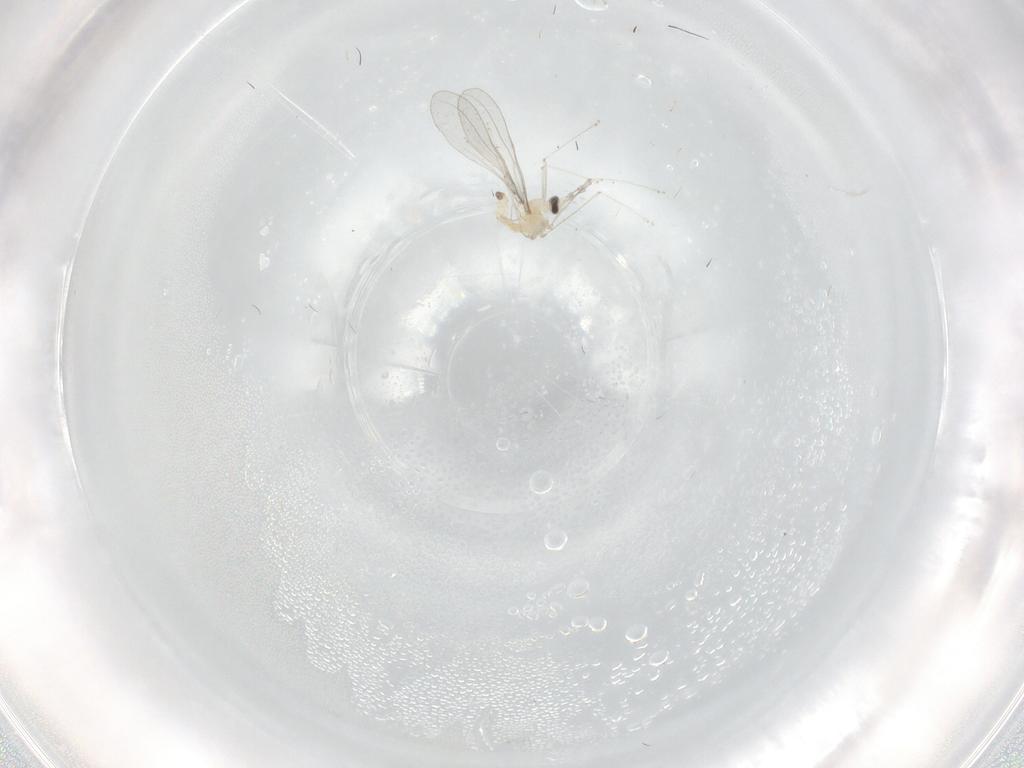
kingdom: Animalia
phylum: Arthropoda
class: Insecta
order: Diptera
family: Cecidomyiidae
